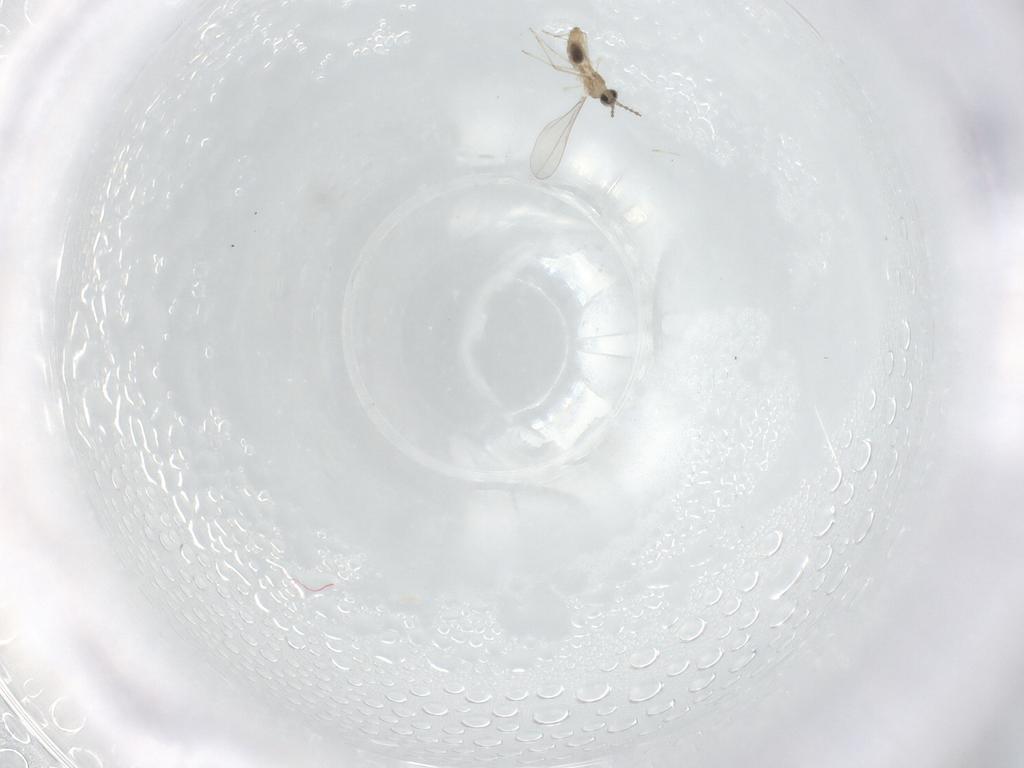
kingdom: Animalia
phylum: Arthropoda
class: Insecta
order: Diptera
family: Cecidomyiidae
